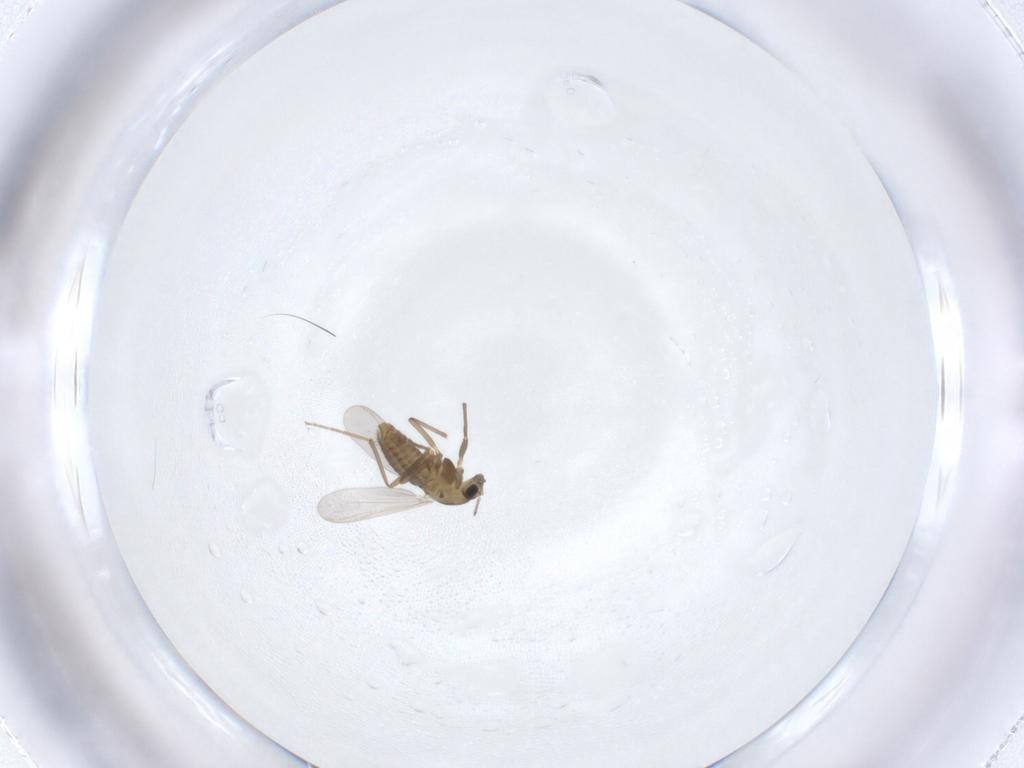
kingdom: Animalia
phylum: Arthropoda
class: Insecta
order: Diptera
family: Chironomidae
